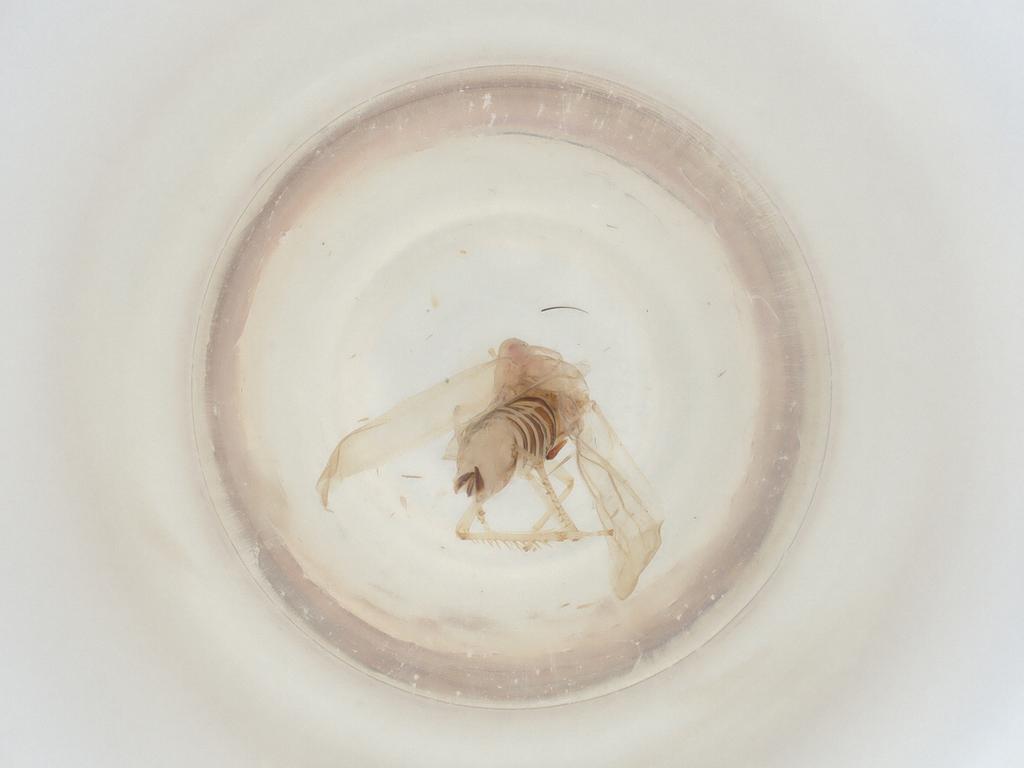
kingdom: Animalia
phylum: Arthropoda
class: Insecta
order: Hemiptera
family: Cicadellidae
